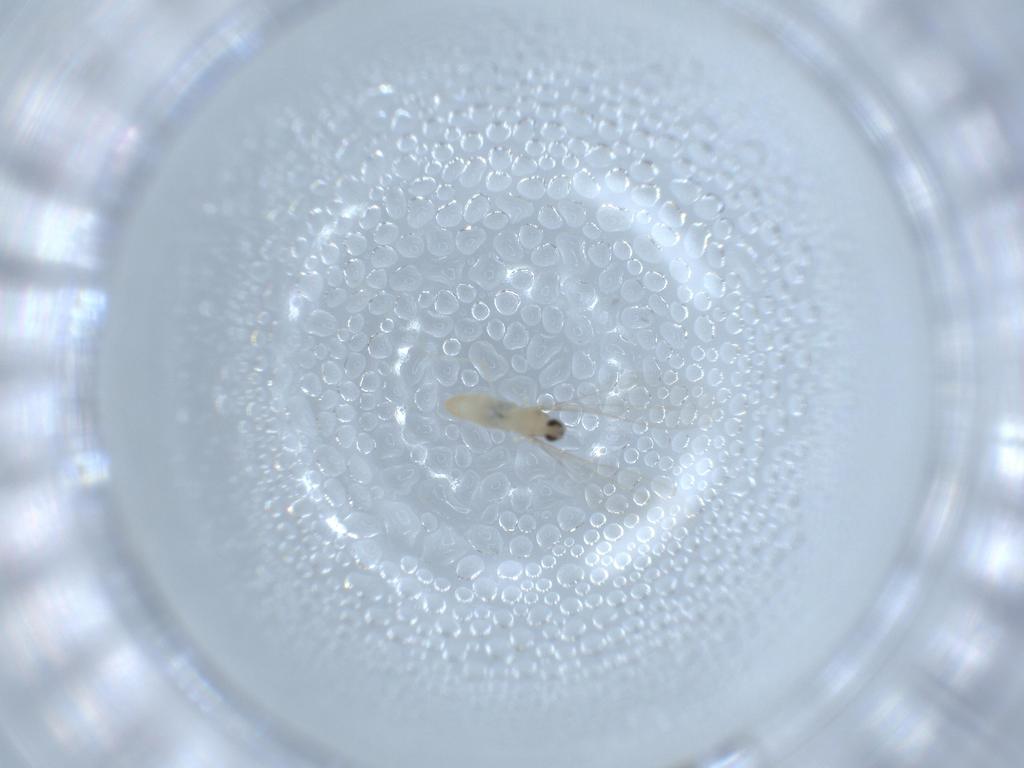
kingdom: Animalia
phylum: Arthropoda
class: Insecta
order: Diptera
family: Cecidomyiidae
